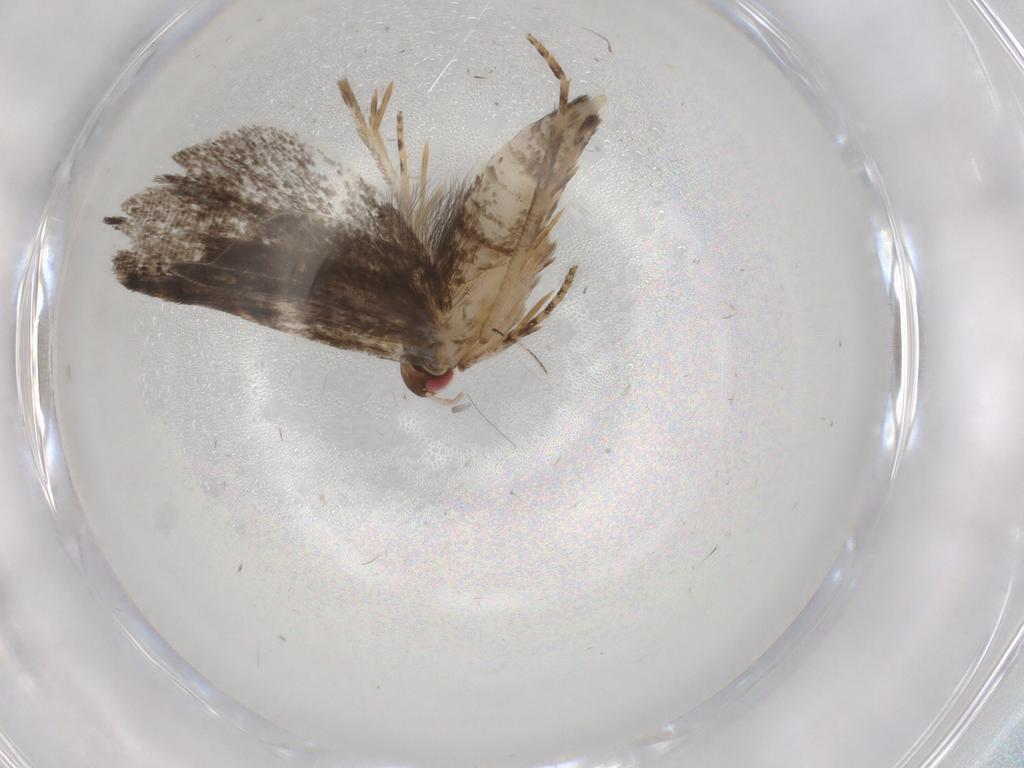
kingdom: Animalia
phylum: Arthropoda
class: Insecta
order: Lepidoptera
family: Gelechiidae
